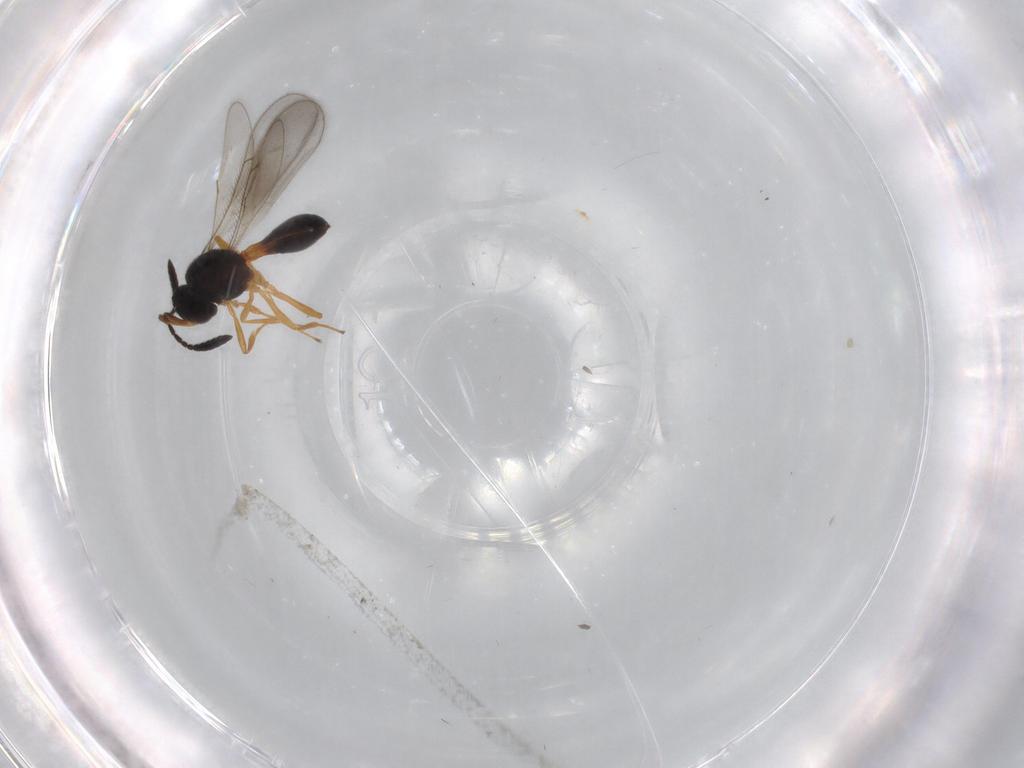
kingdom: Animalia
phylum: Arthropoda
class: Insecta
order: Hymenoptera
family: Scelionidae
